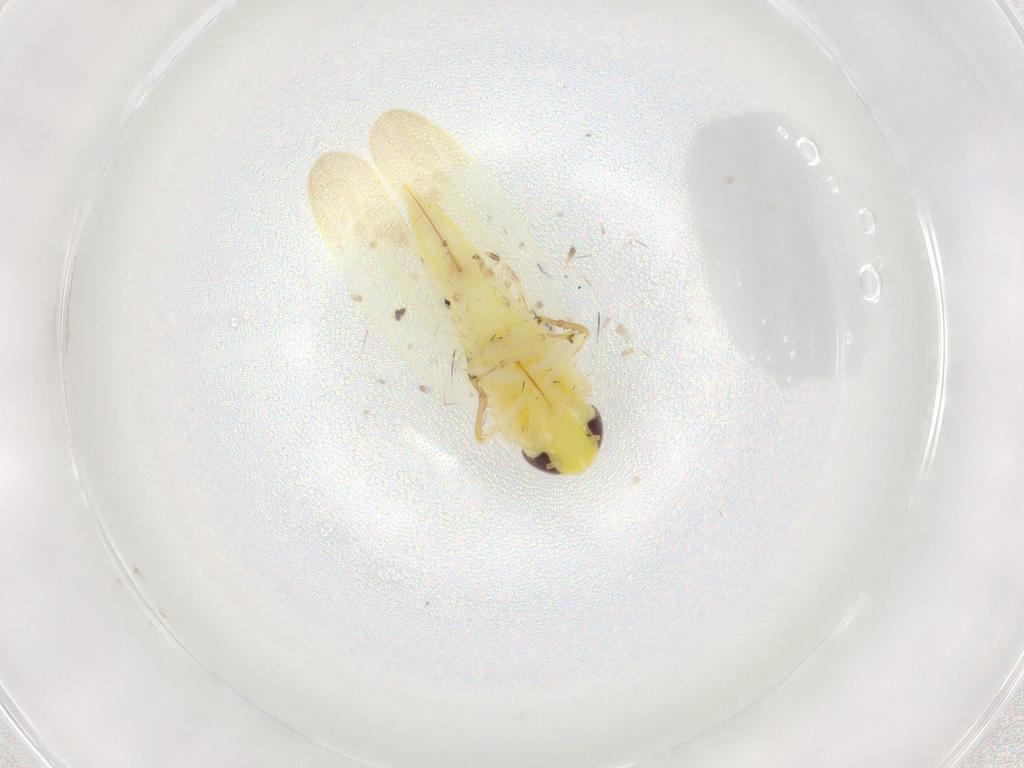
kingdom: Animalia
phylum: Arthropoda
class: Insecta
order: Hemiptera
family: Cicadellidae
